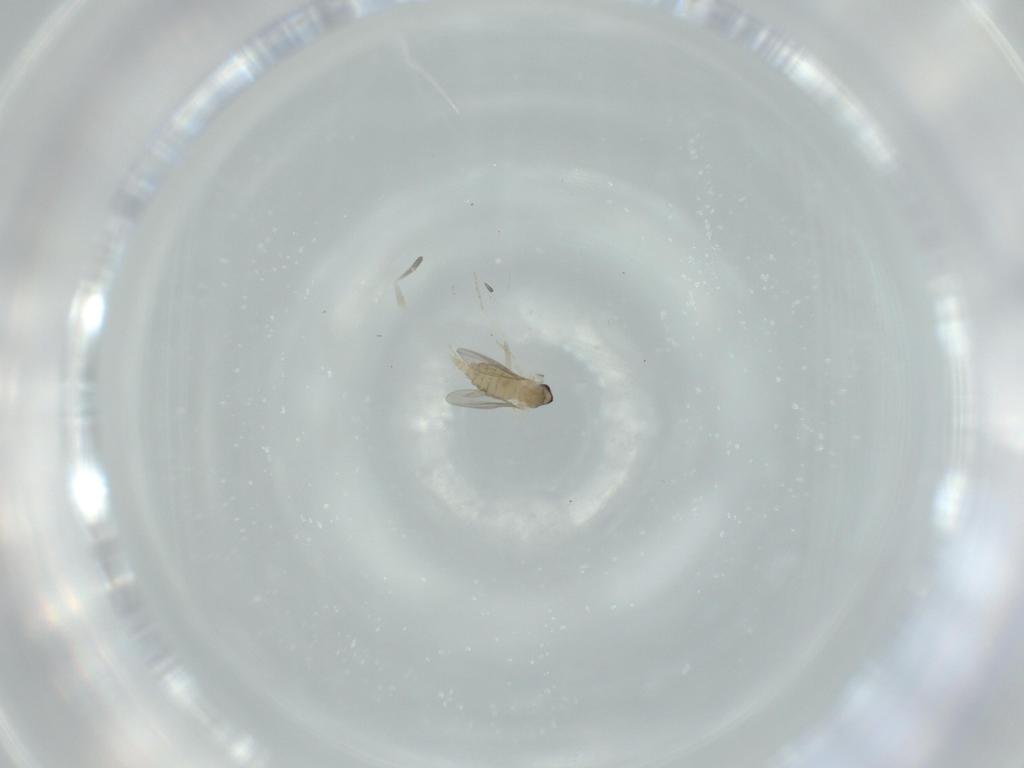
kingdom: Animalia
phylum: Arthropoda
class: Insecta
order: Diptera
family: Cecidomyiidae
